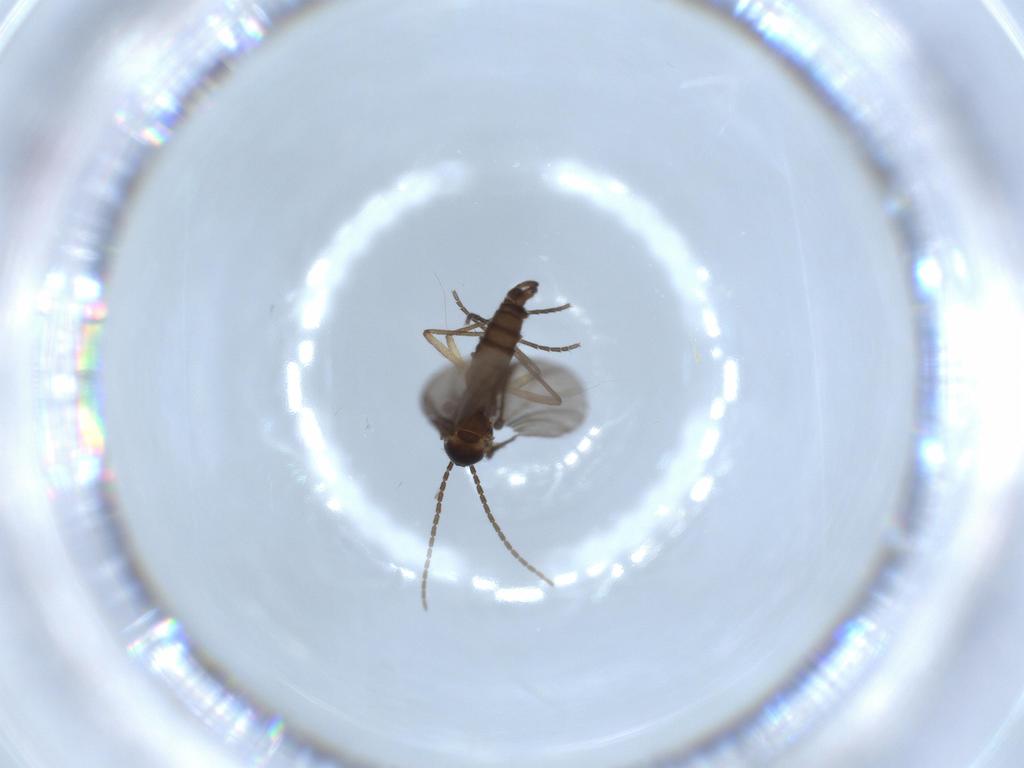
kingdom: Animalia
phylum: Arthropoda
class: Insecta
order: Diptera
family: Sciaridae
